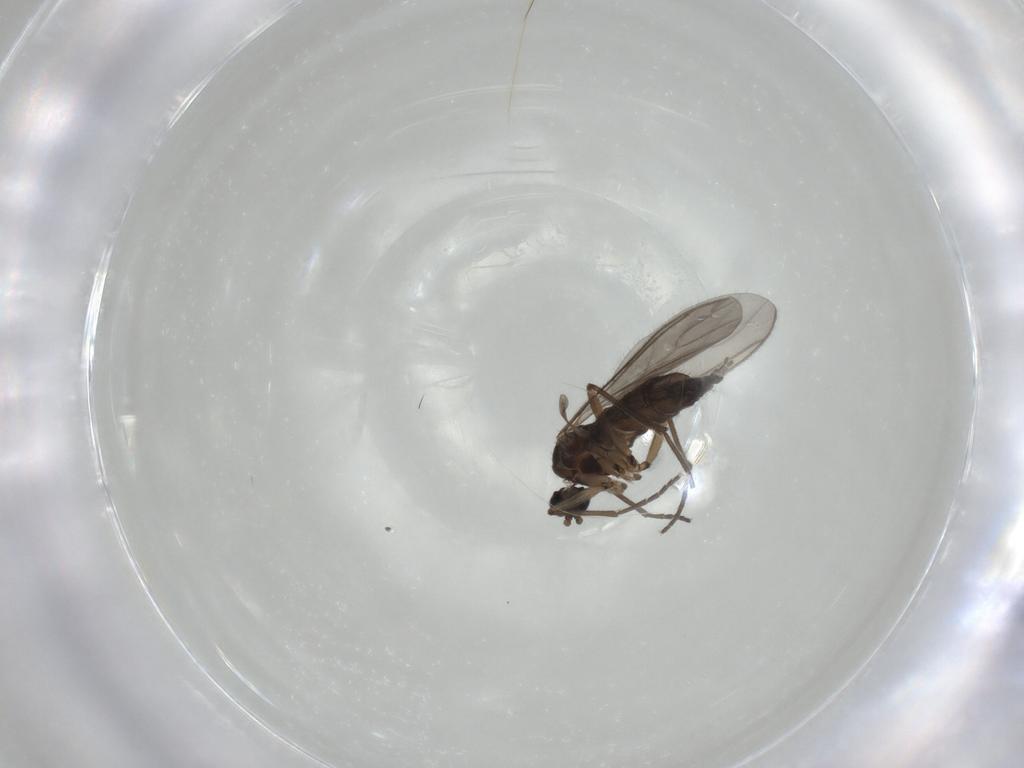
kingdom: Animalia
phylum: Arthropoda
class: Insecta
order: Diptera
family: Sciaridae
